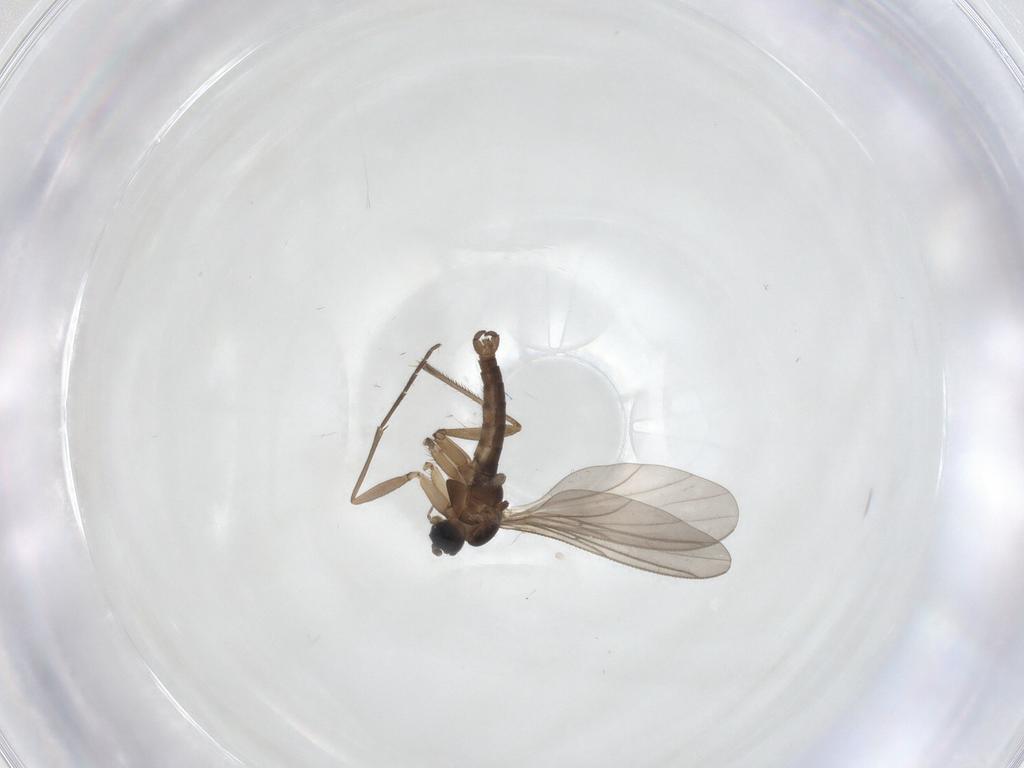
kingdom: Animalia
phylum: Arthropoda
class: Insecta
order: Diptera
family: Sciaridae
